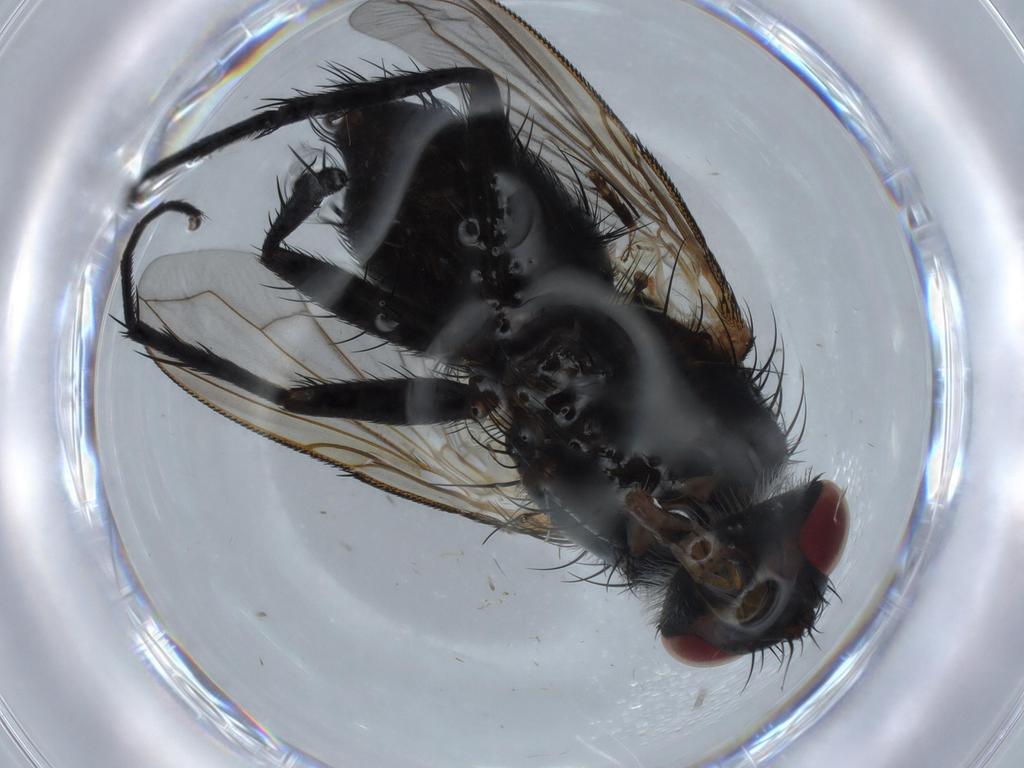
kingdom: Animalia
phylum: Arthropoda
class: Insecta
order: Diptera
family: Ceratopogonidae
